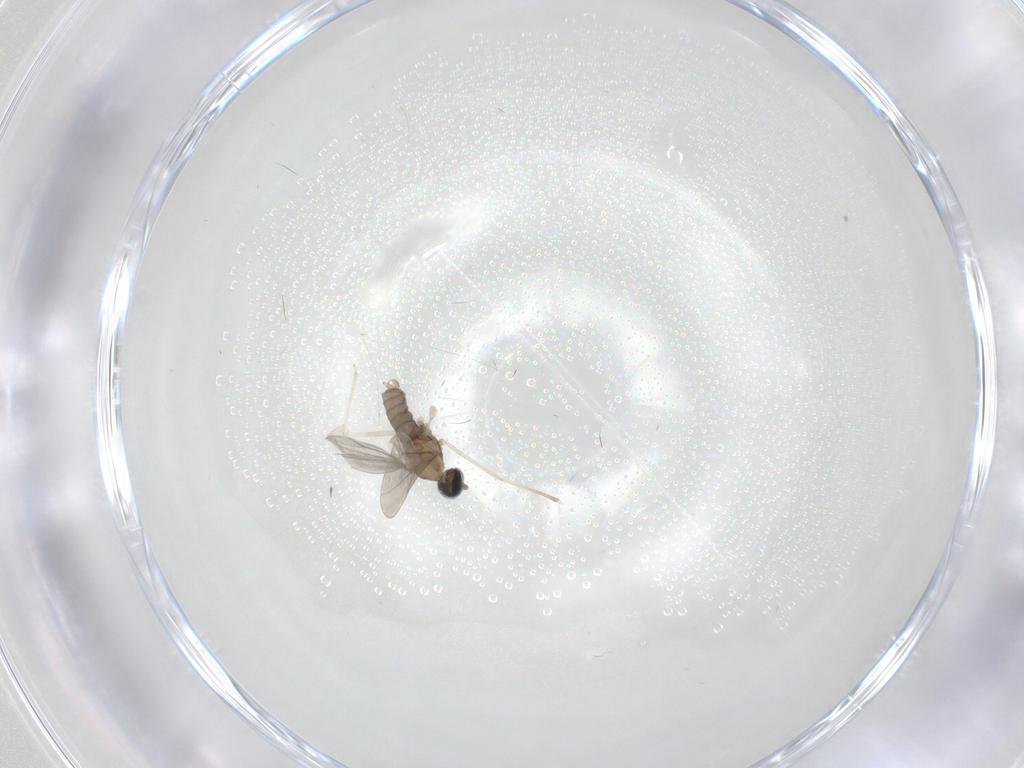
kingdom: Animalia
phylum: Arthropoda
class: Insecta
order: Diptera
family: Cecidomyiidae
